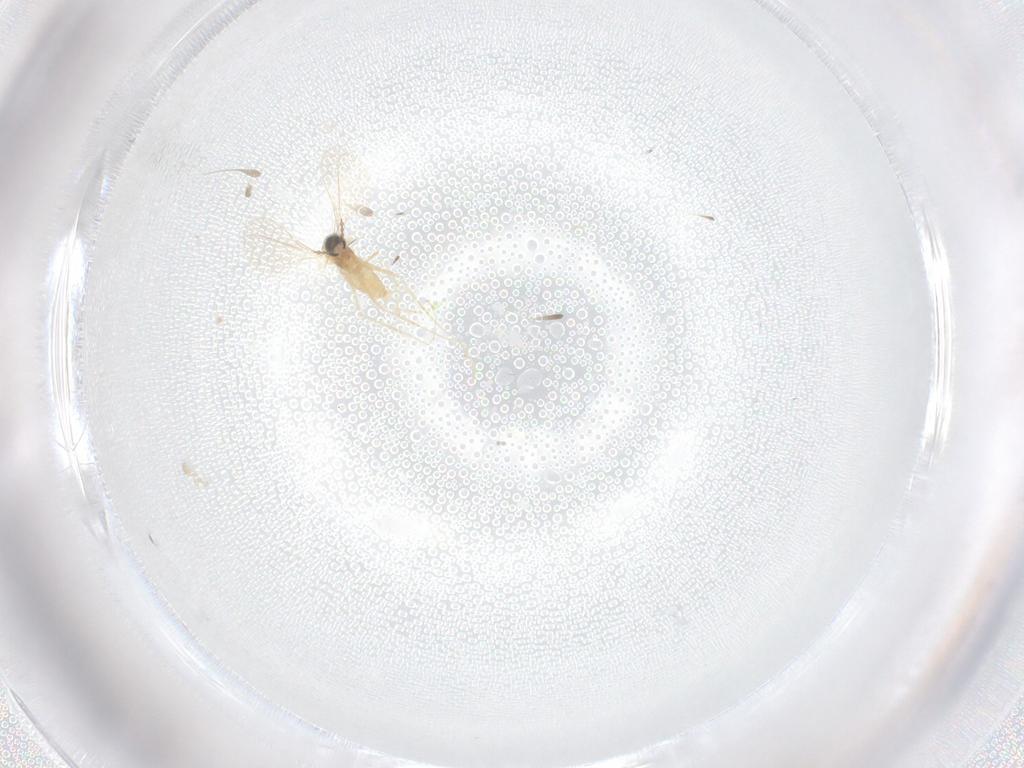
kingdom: Animalia
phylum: Arthropoda
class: Insecta
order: Diptera
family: Cecidomyiidae
